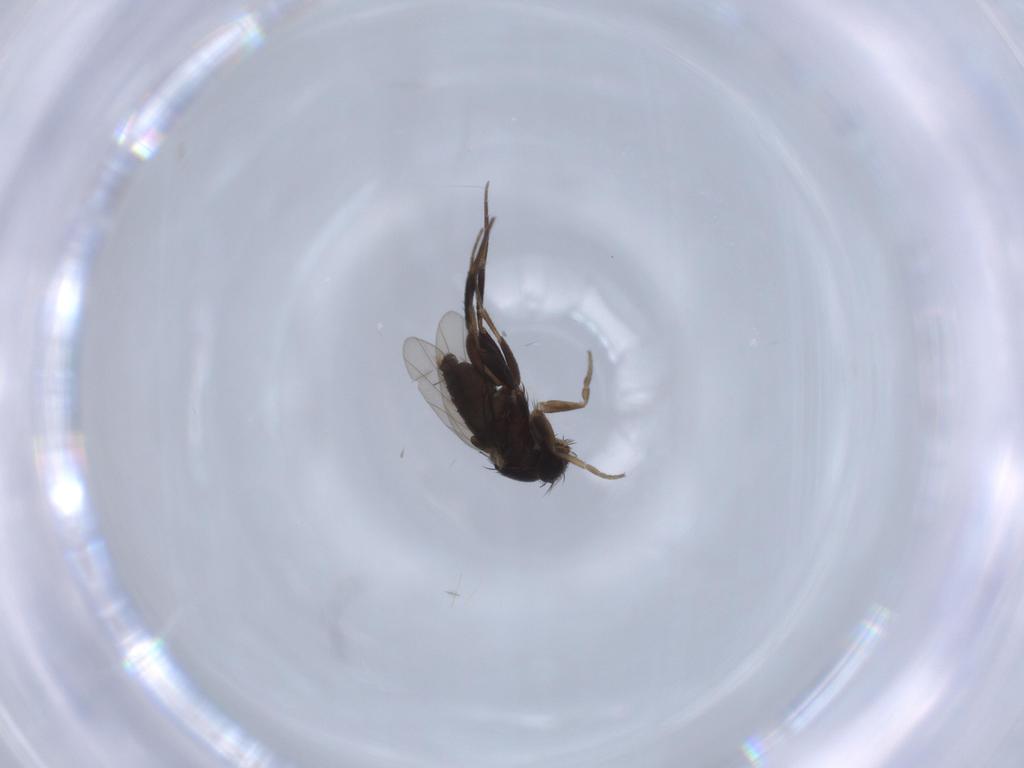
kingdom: Animalia
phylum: Arthropoda
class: Insecta
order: Diptera
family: Phoridae
